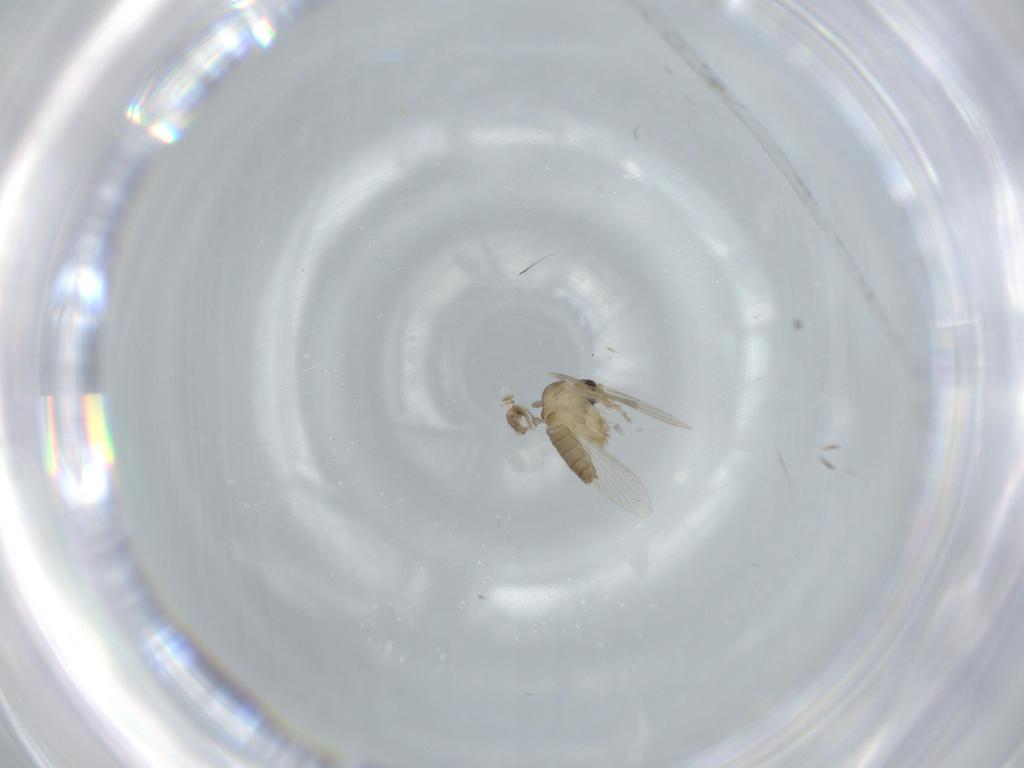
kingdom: Animalia
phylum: Arthropoda
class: Insecta
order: Diptera
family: Psychodidae
